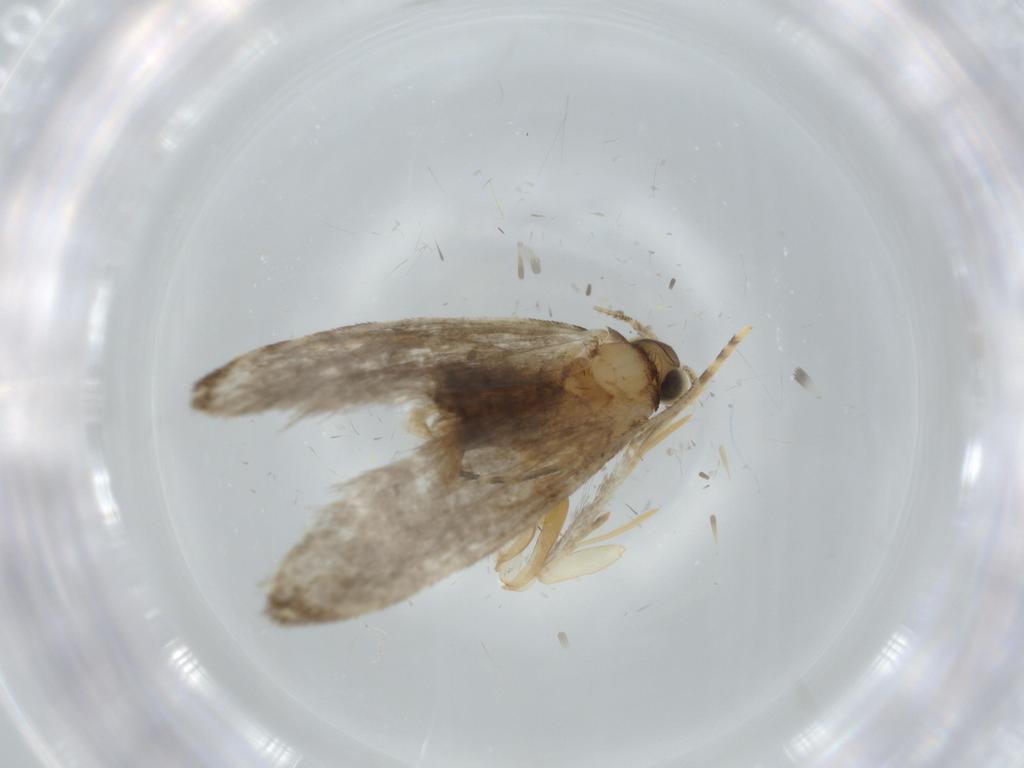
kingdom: Animalia
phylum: Arthropoda
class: Insecta
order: Lepidoptera
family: Tineidae
